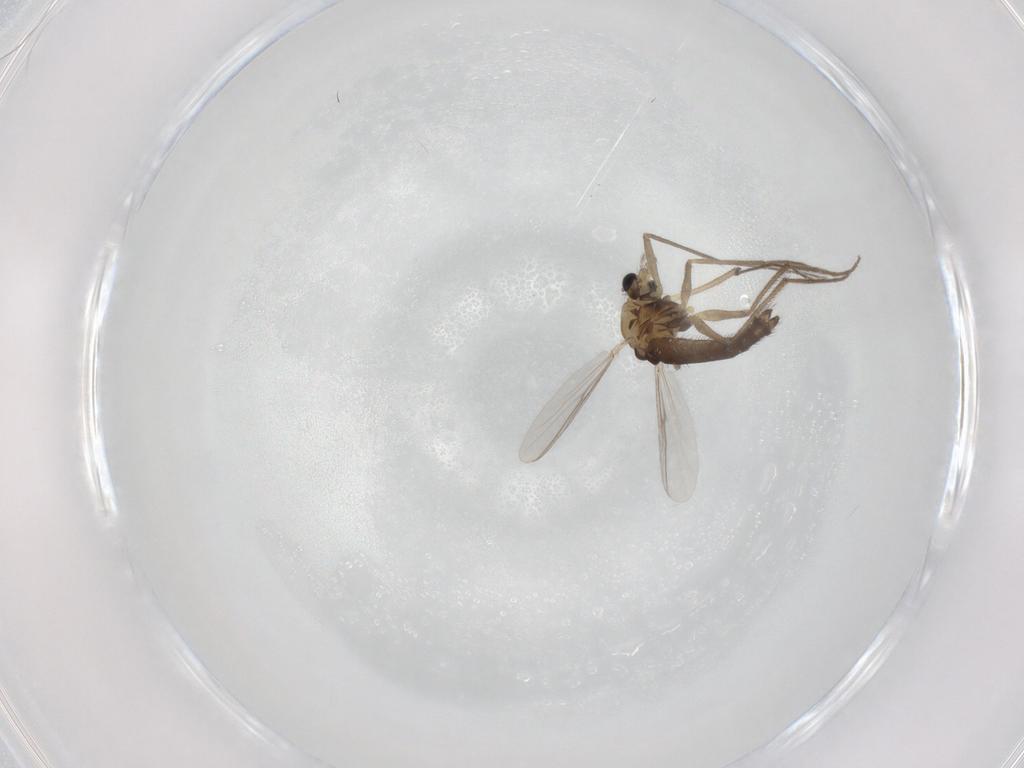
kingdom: Animalia
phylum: Arthropoda
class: Insecta
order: Diptera
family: Chironomidae
